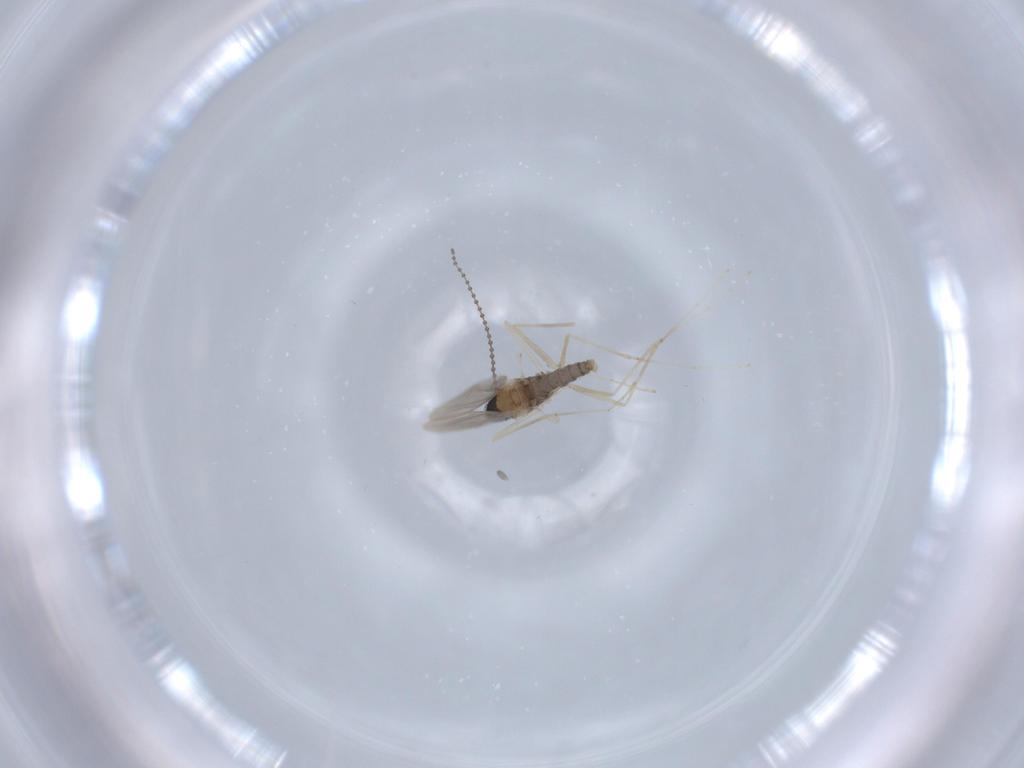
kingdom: Animalia
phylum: Arthropoda
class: Insecta
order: Diptera
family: Cecidomyiidae
